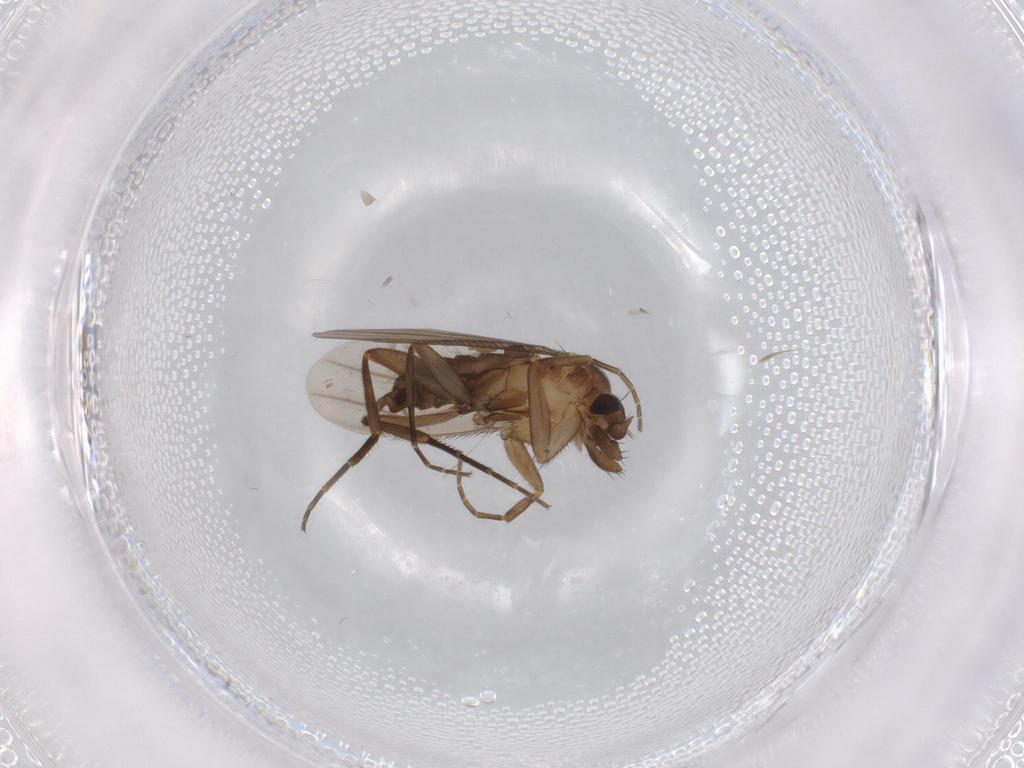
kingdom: Animalia
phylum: Arthropoda
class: Insecta
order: Diptera
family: Phoridae
